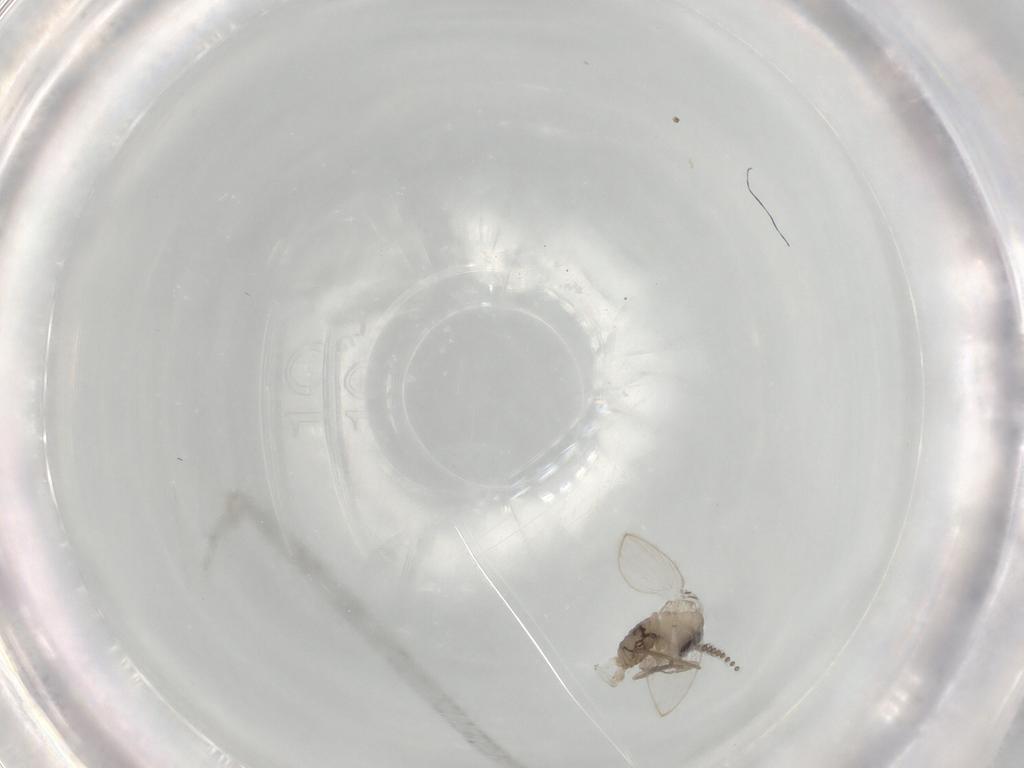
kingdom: Animalia
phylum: Arthropoda
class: Insecta
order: Diptera
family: Psychodidae
